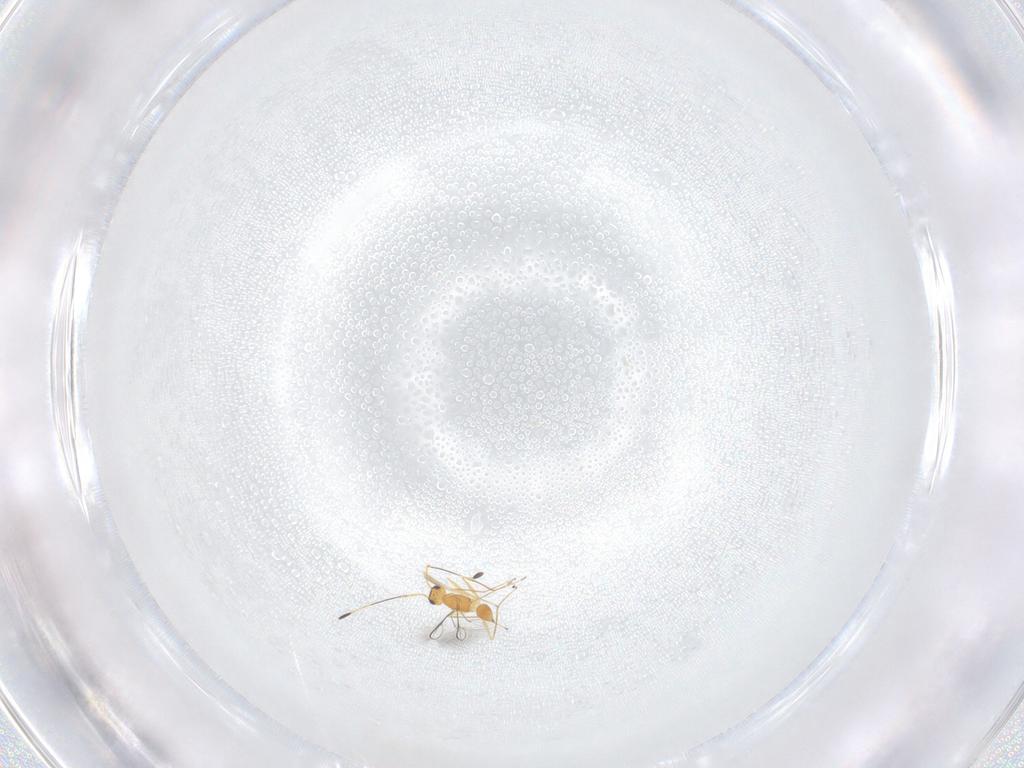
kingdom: Animalia
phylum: Arthropoda
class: Insecta
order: Hymenoptera
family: Mymaridae
